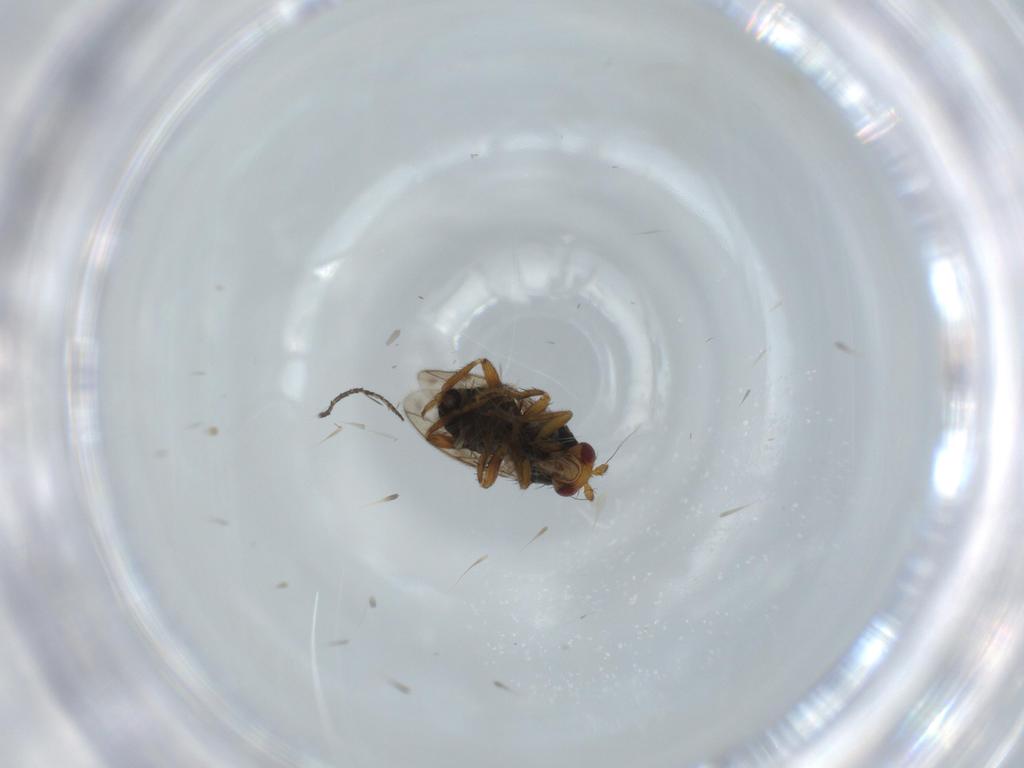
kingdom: Animalia
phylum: Arthropoda
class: Insecta
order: Diptera
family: Sphaeroceridae
